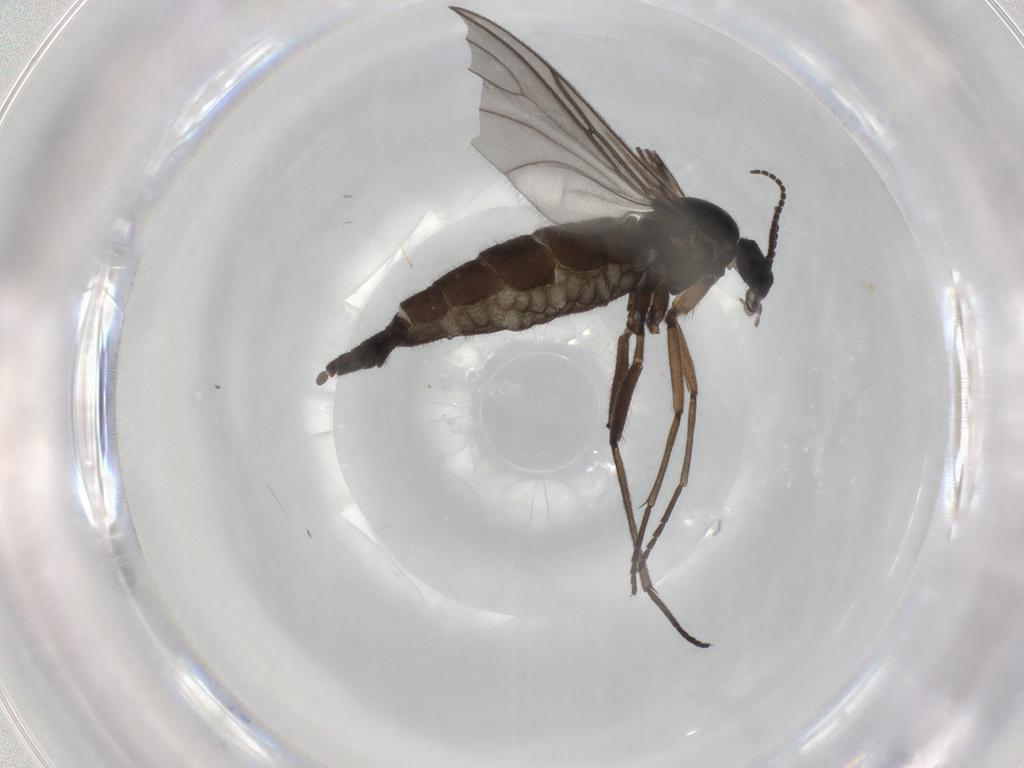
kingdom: Animalia
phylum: Arthropoda
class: Insecta
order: Diptera
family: Sciaridae
